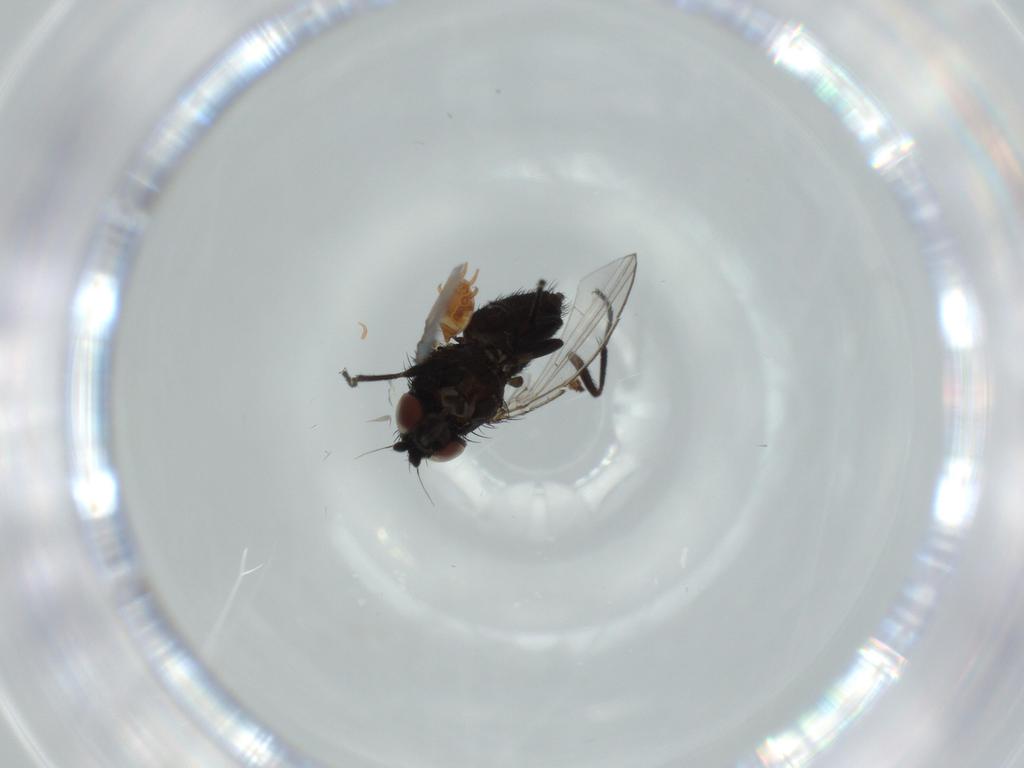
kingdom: Animalia
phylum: Arthropoda
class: Insecta
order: Diptera
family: Milichiidae
